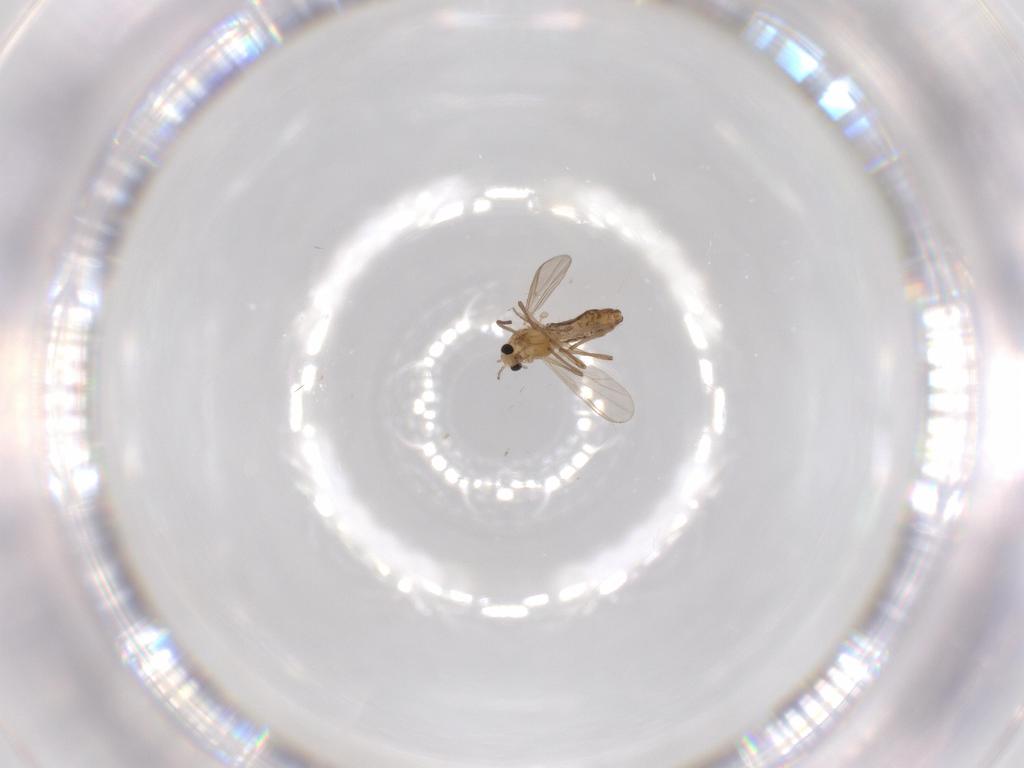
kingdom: Animalia
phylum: Arthropoda
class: Insecta
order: Diptera
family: Chironomidae
